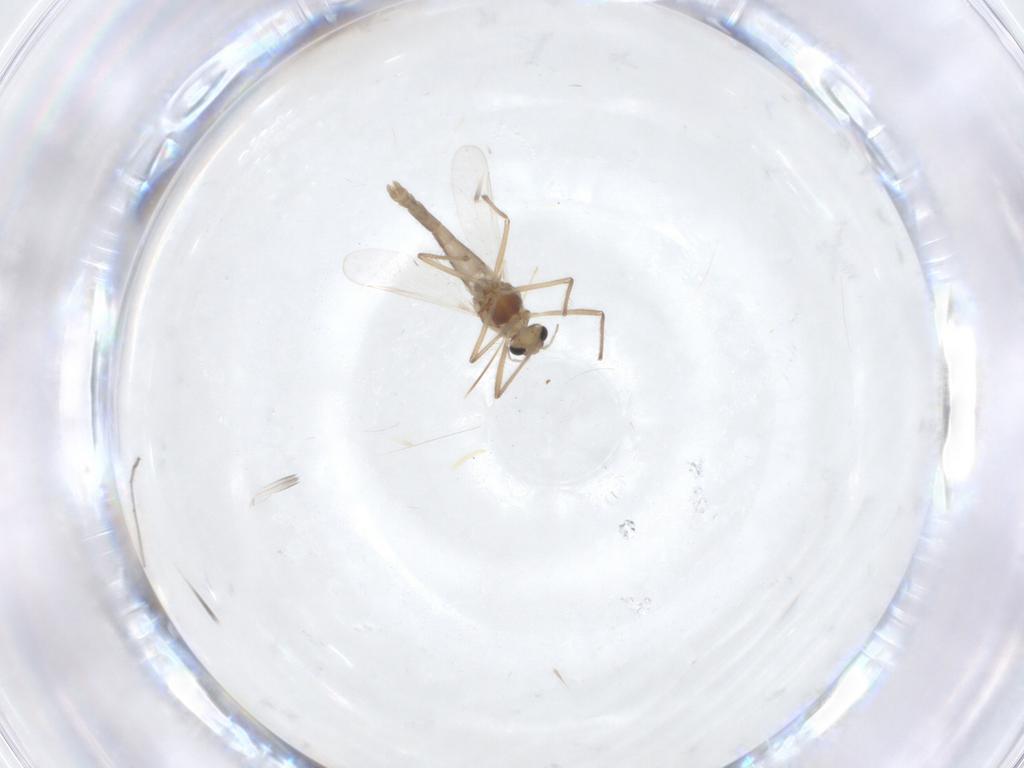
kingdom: Animalia
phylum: Arthropoda
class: Insecta
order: Diptera
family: Chironomidae
